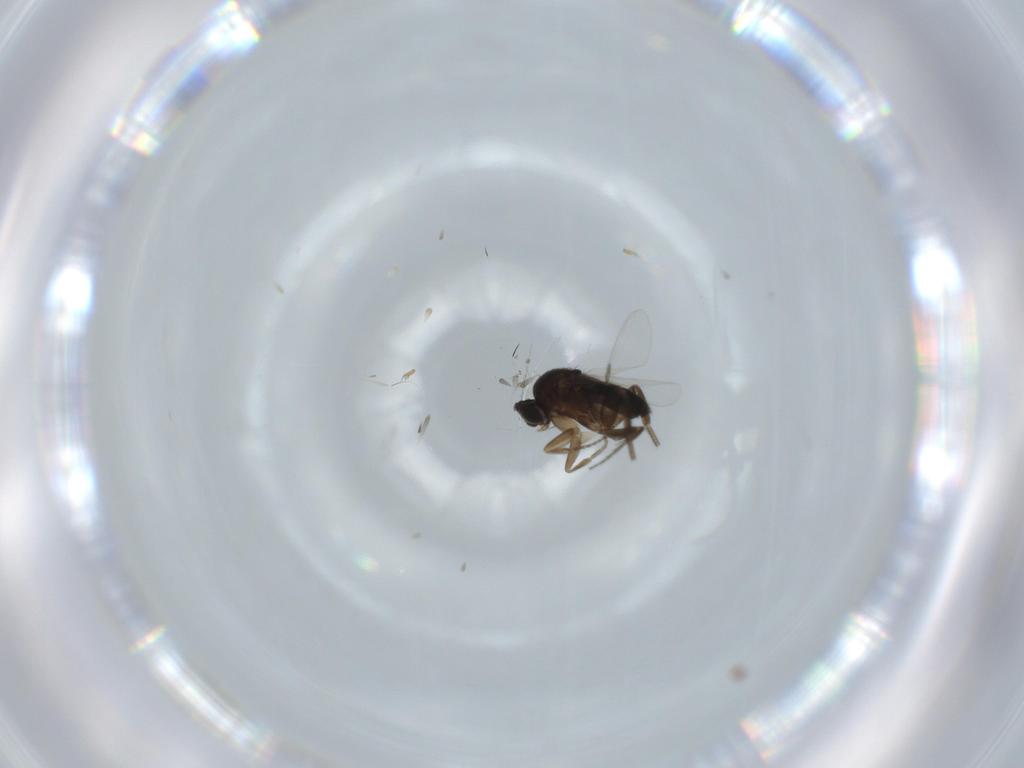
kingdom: Animalia
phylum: Arthropoda
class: Insecta
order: Diptera
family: Phoridae
